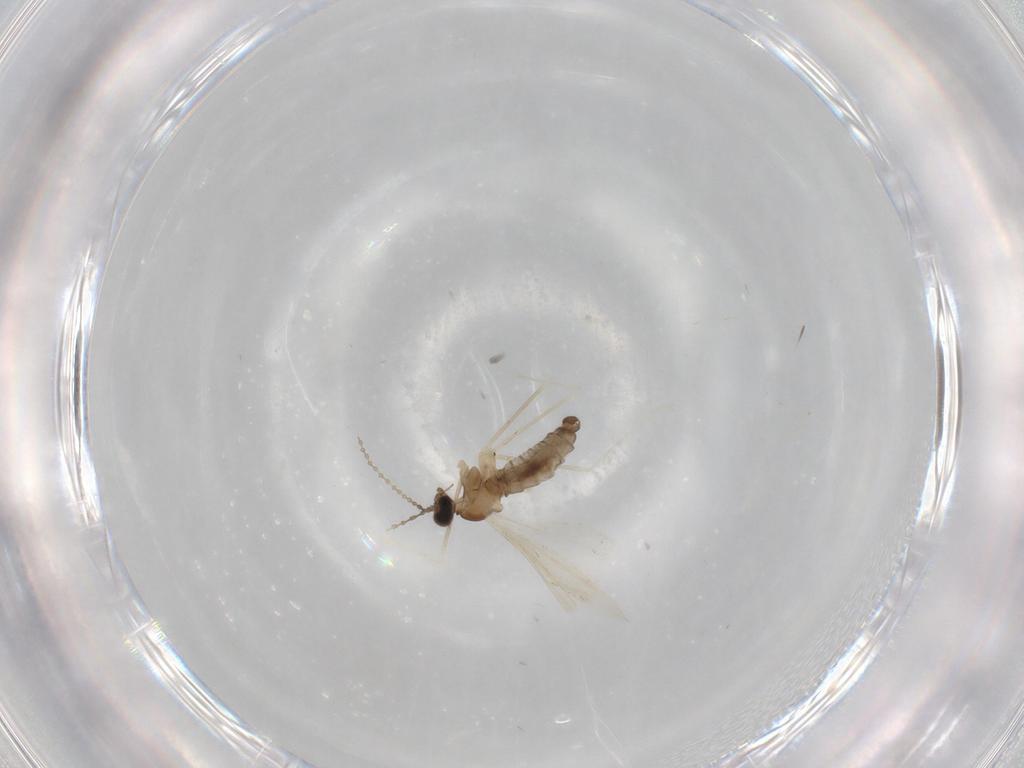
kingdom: Animalia
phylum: Arthropoda
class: Insecta
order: Diptera
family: Cecidomyiidae
